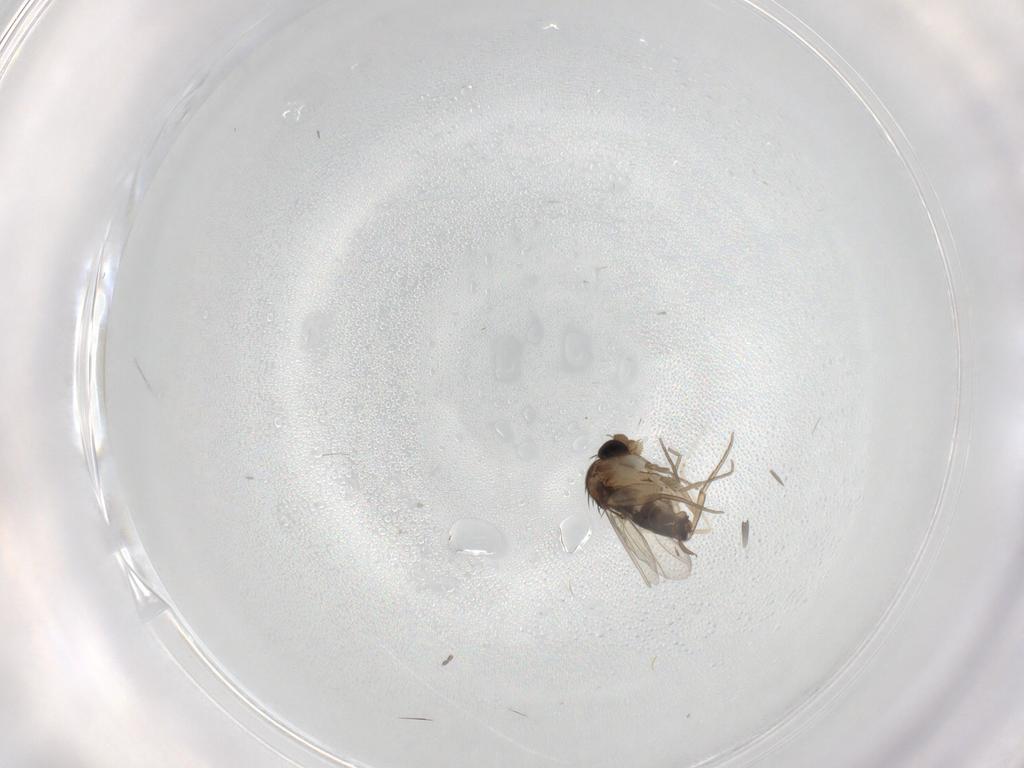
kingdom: Animalia
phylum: Arthropoda
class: Insecta
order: Diptera
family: Phoridae
